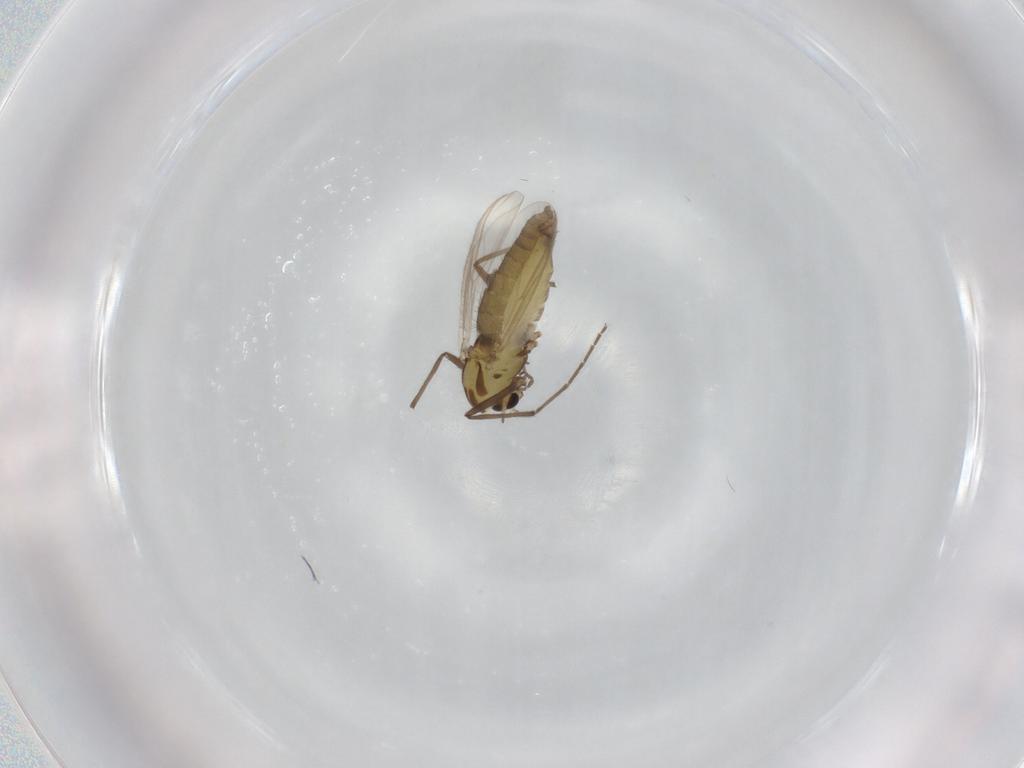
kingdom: Animalia
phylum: Arthropoda
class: Insecta
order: Diptera
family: Chironomidae
